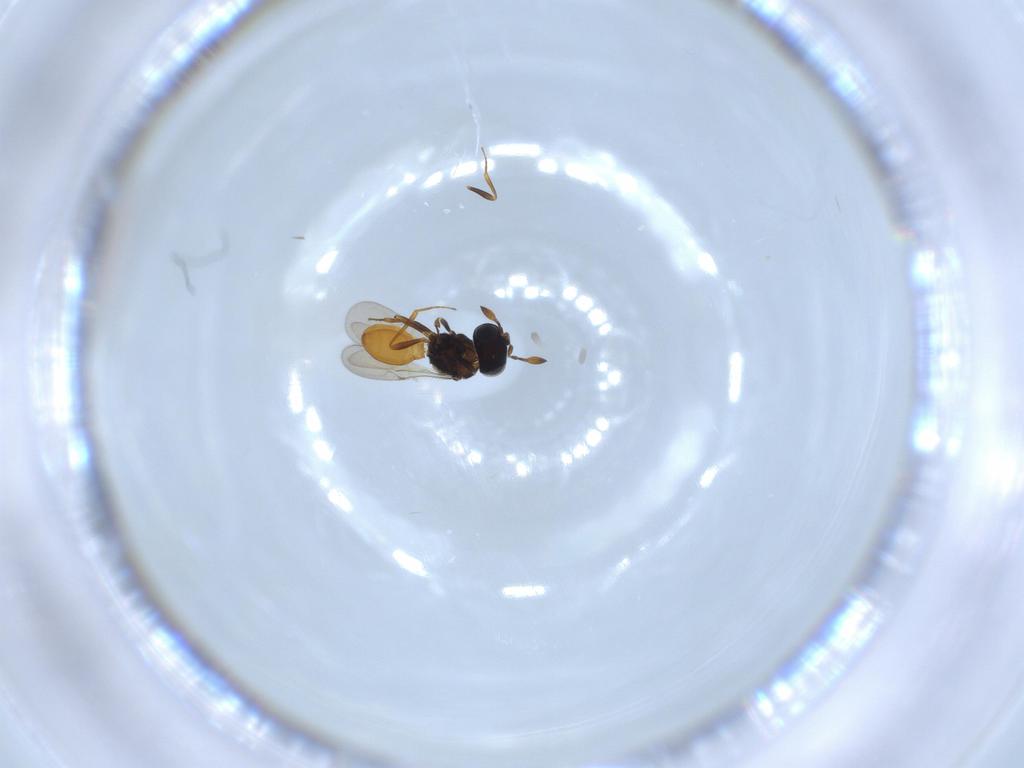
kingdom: Animalia
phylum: Arthropoda
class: Insecta
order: Hymenoptera
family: Scelionidae
